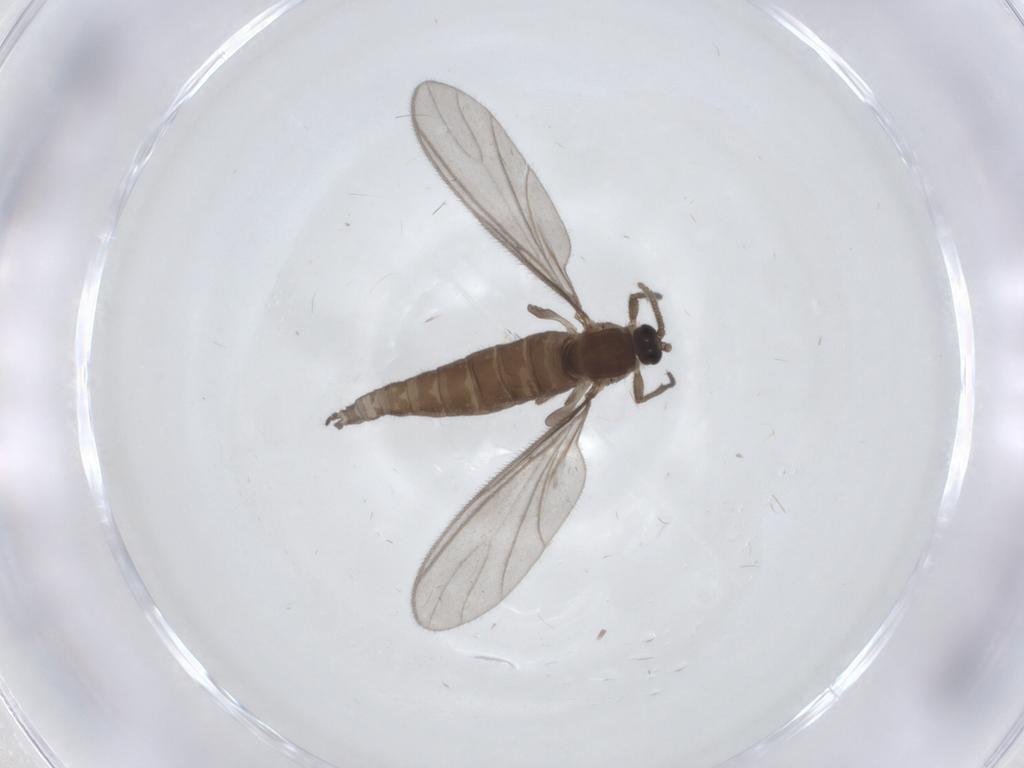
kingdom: Animalia
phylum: Arthropoda
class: Insecta
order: Diptera
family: Sciaridae
